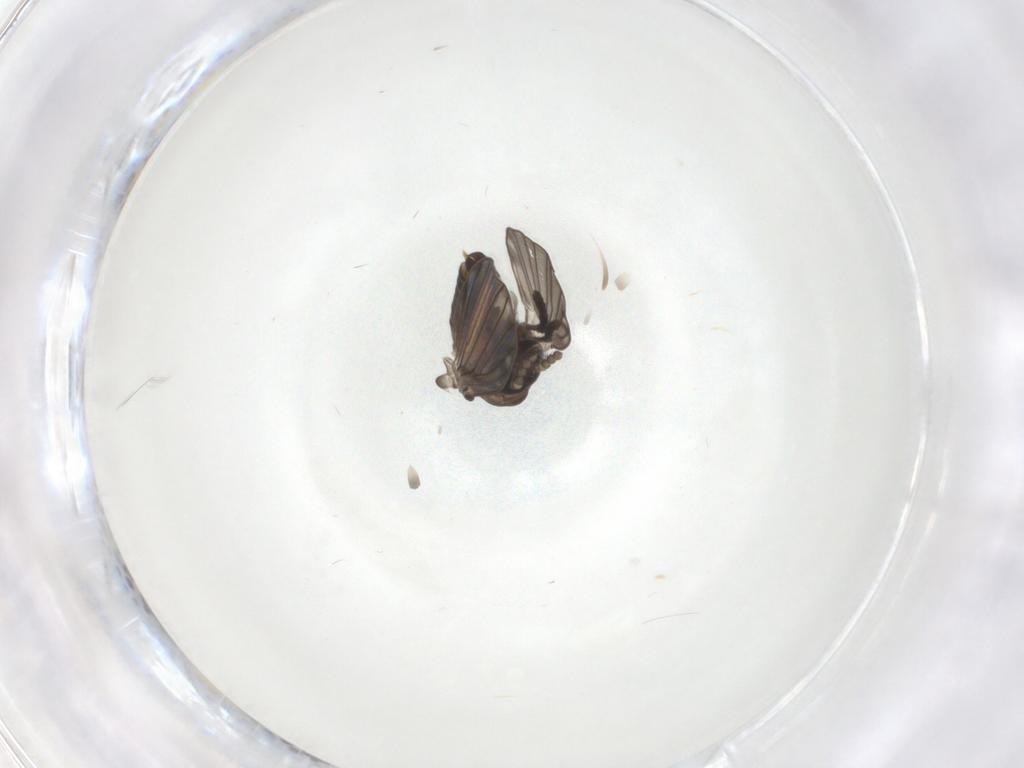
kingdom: Animalia
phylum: Arthropoda
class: Insecta
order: Diptera
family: Psychodidae
